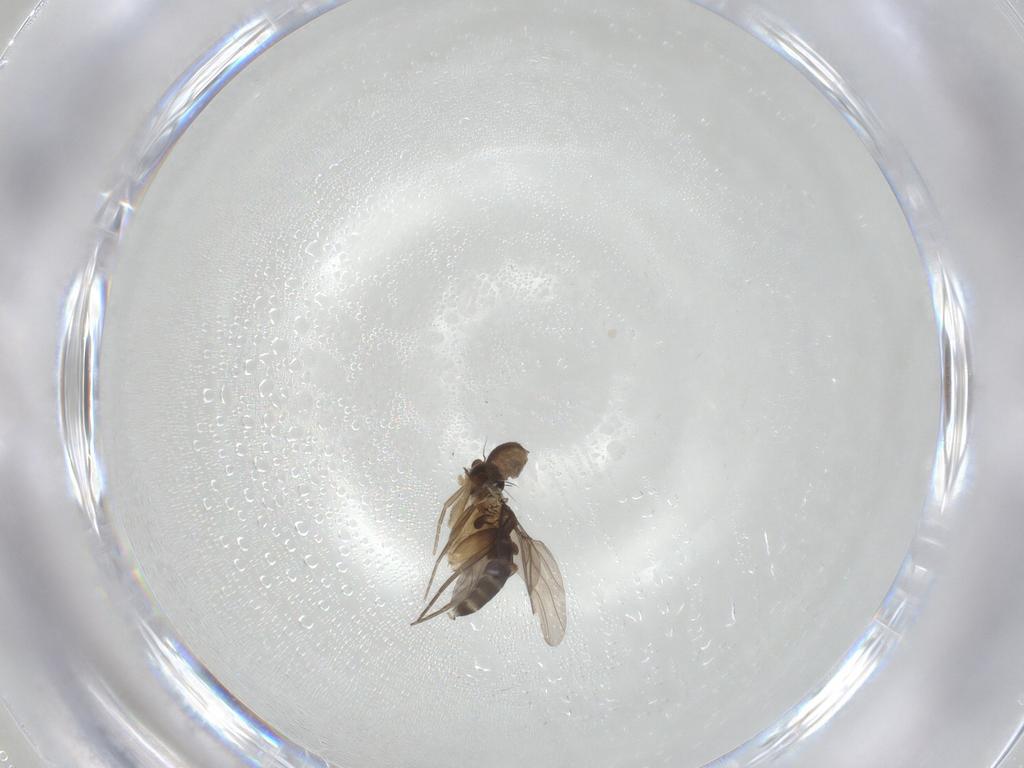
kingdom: Animalia
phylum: Arthropoda
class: Insecta
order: Diptera
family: Phoridae
